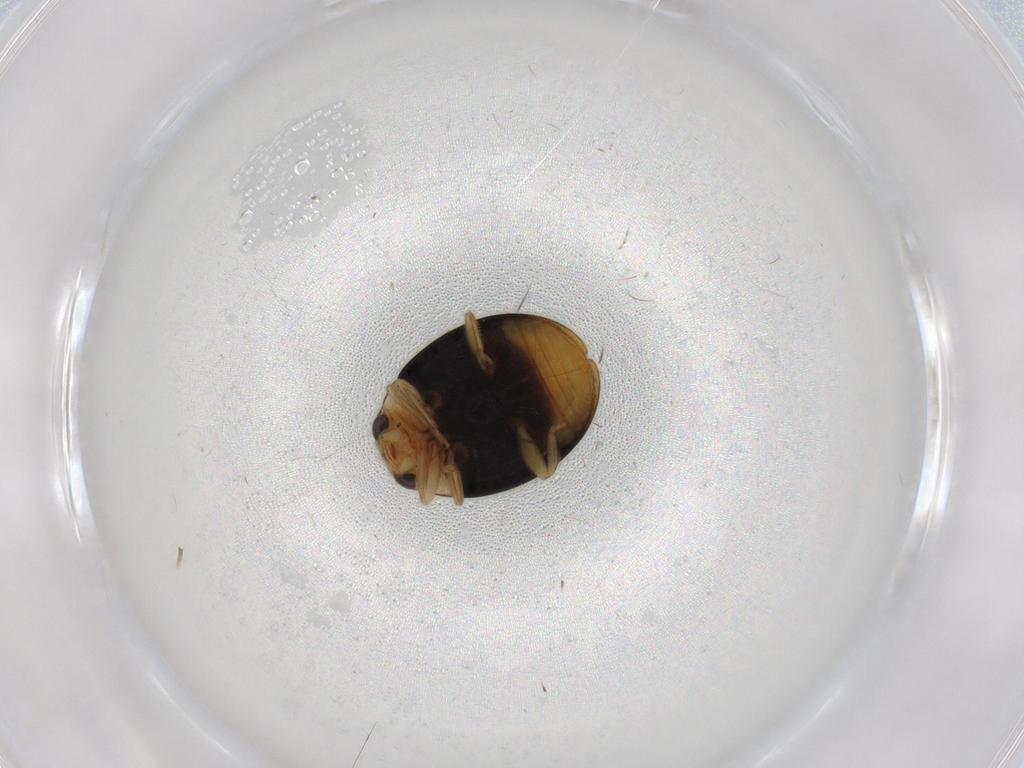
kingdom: Animalia
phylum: Arthropoda
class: Insecta
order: Coleoptera
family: Coccinellidae
